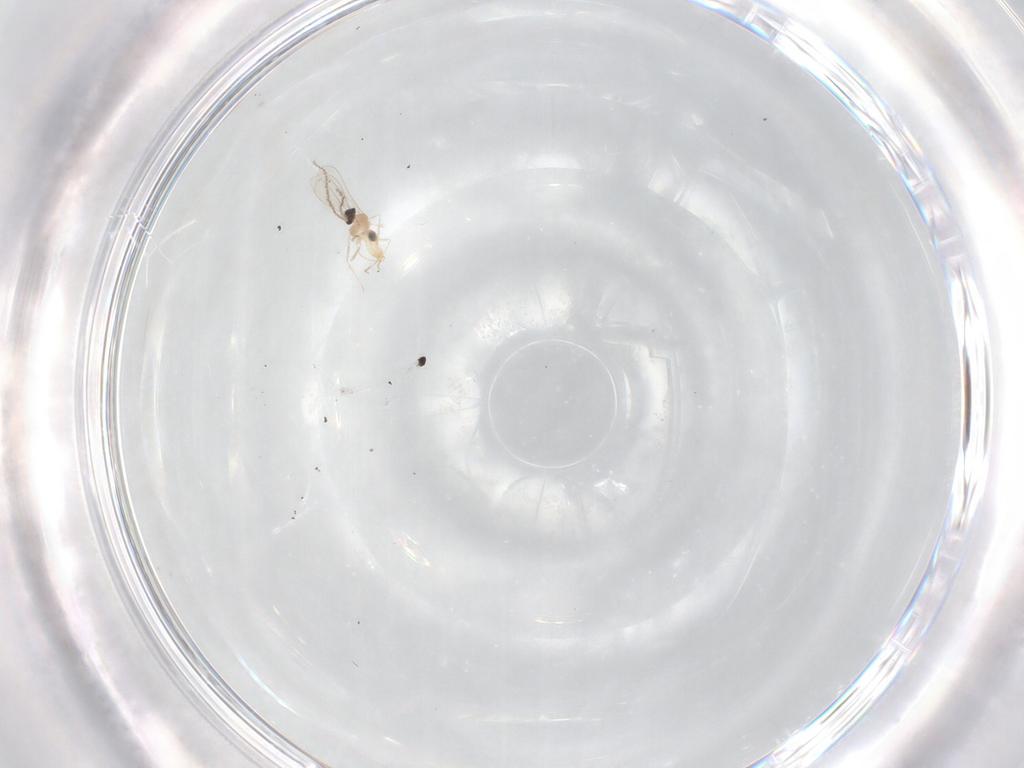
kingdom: Animalia
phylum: Arthropoda
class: Insecta
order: Diptera
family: Cecidomyiidae
